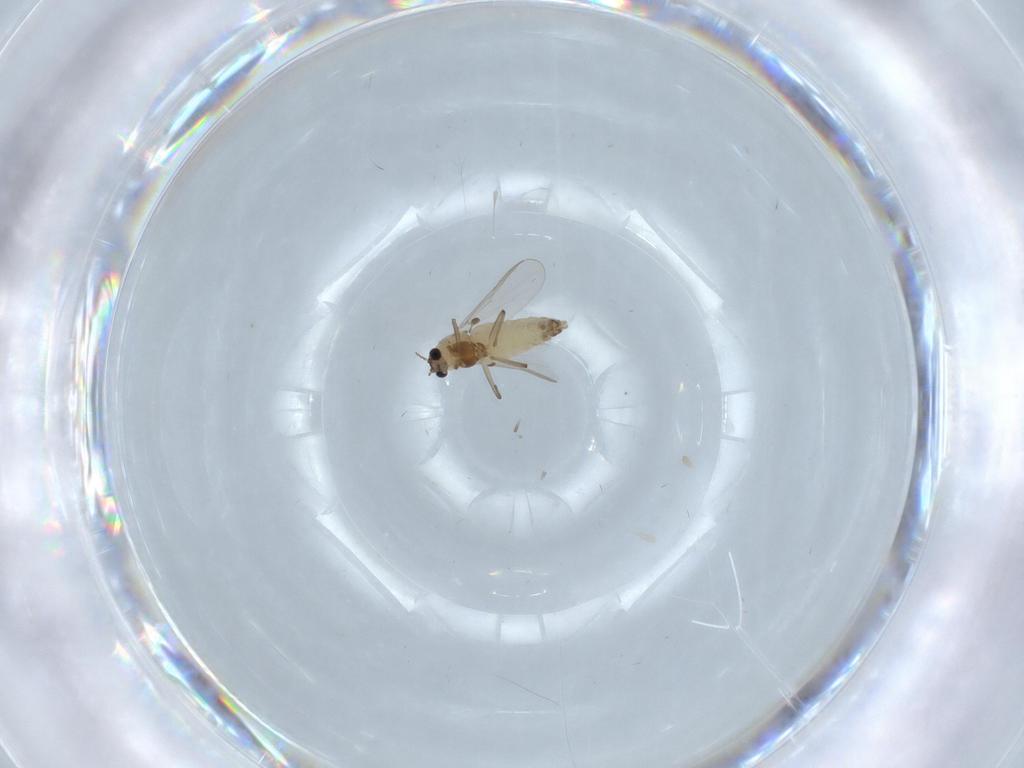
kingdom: Animalia
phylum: Arthropoda
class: Insecta
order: Diptera
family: Chironomidae
